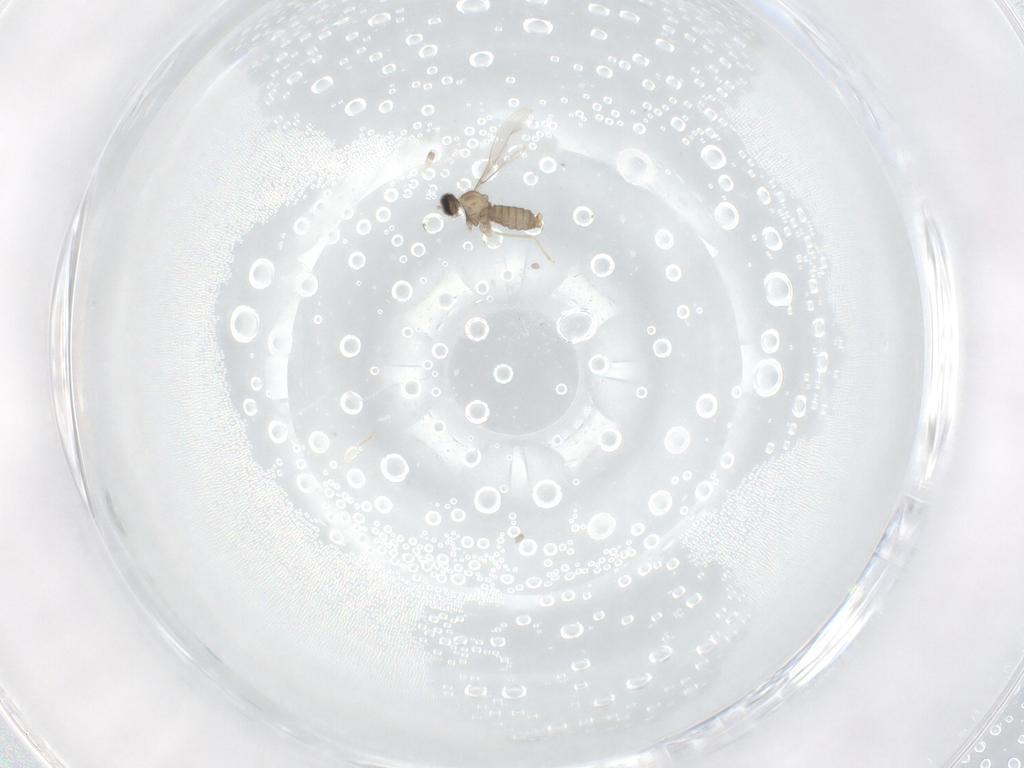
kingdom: Animalia
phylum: Arthropoda
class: Insecta
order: Diptera
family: Cecidomyiidae
